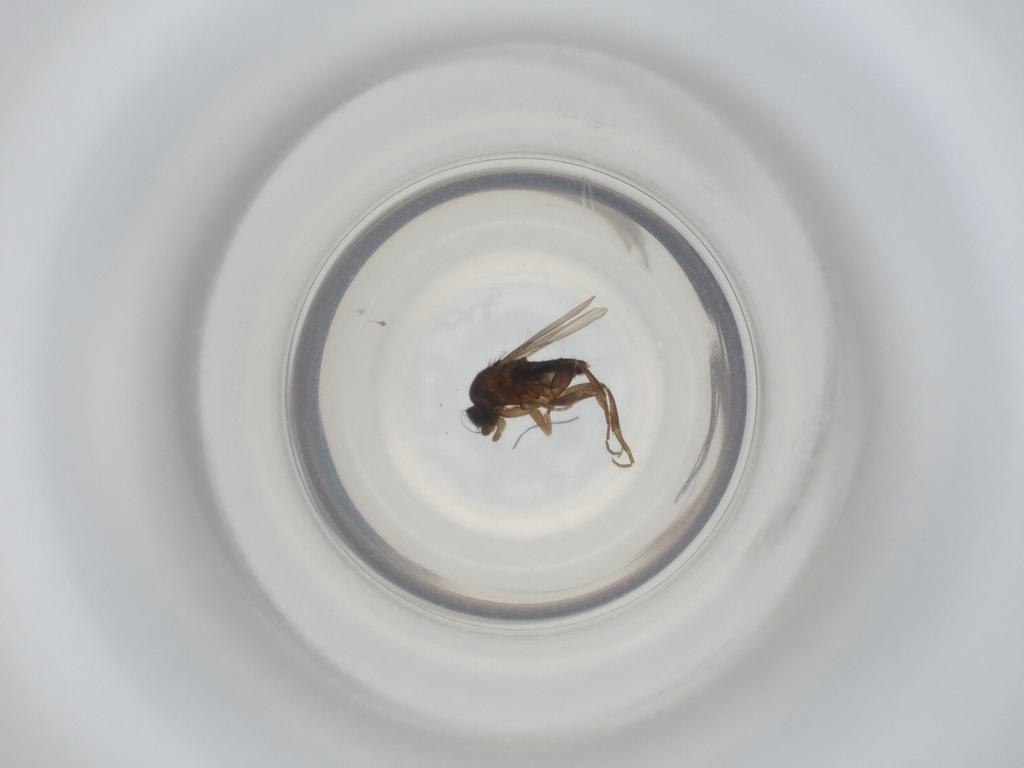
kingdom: Animalia
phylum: Arthropoda
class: Insecta
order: Diptera
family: Phoridae
